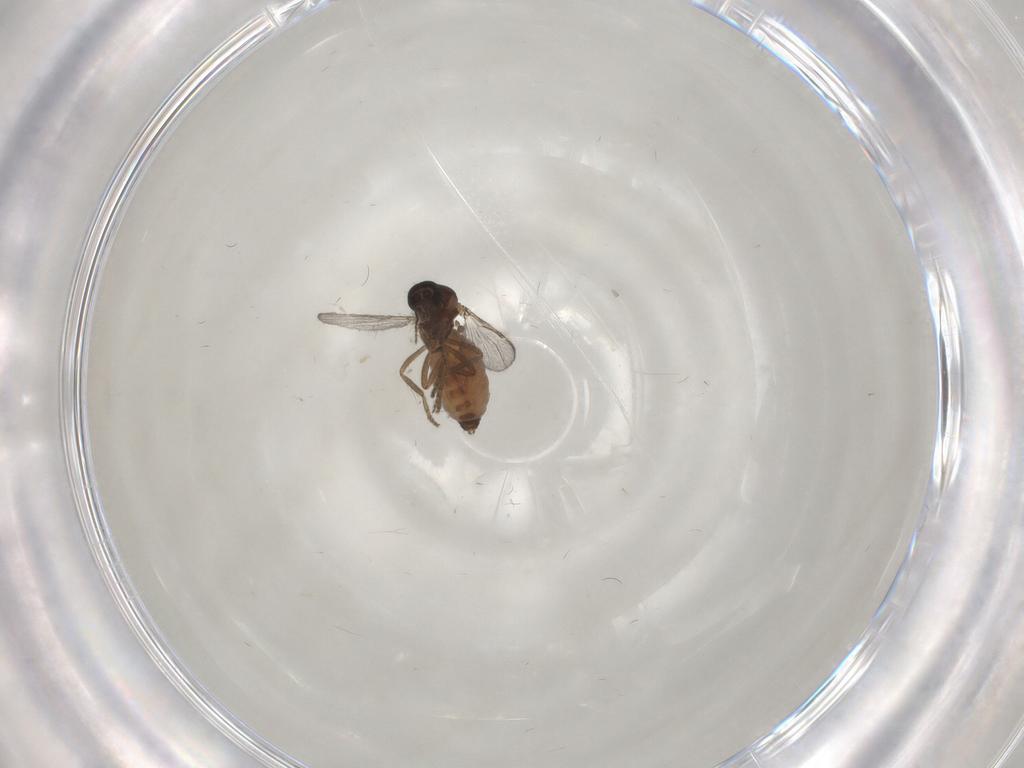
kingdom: Animalia
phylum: Arthropoda
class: Insecta
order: Diptera
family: Ceratopogonidae
